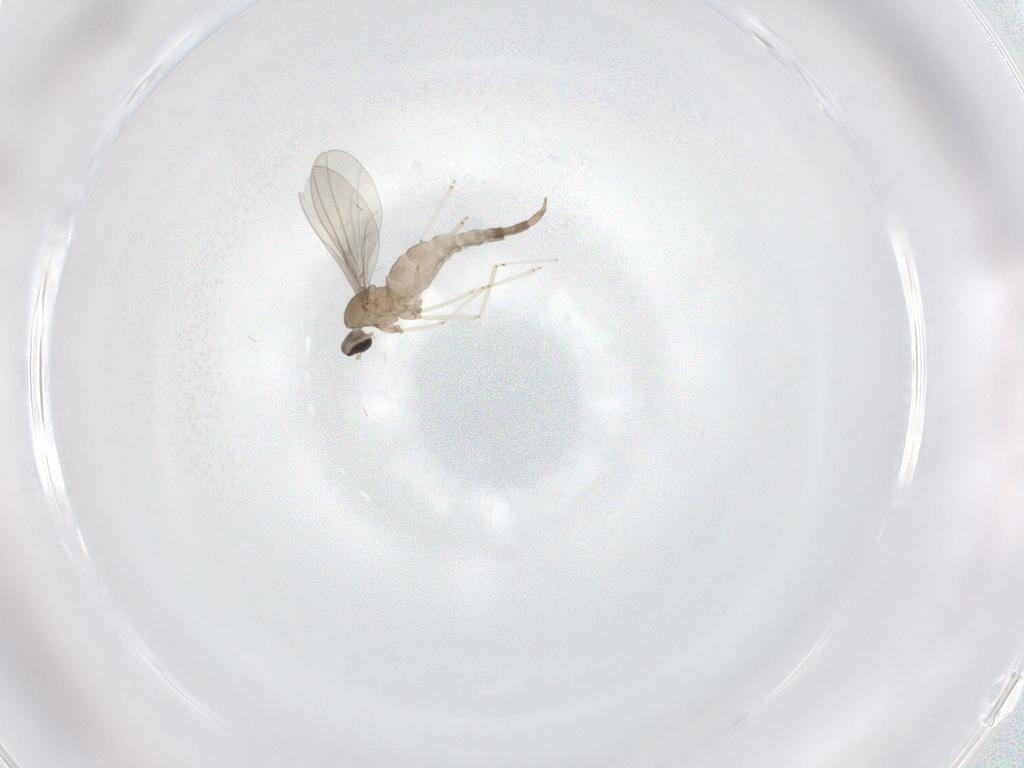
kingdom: Animalia
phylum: Arthropoda
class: Insecta
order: Diptera
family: Cecidomyiidae
